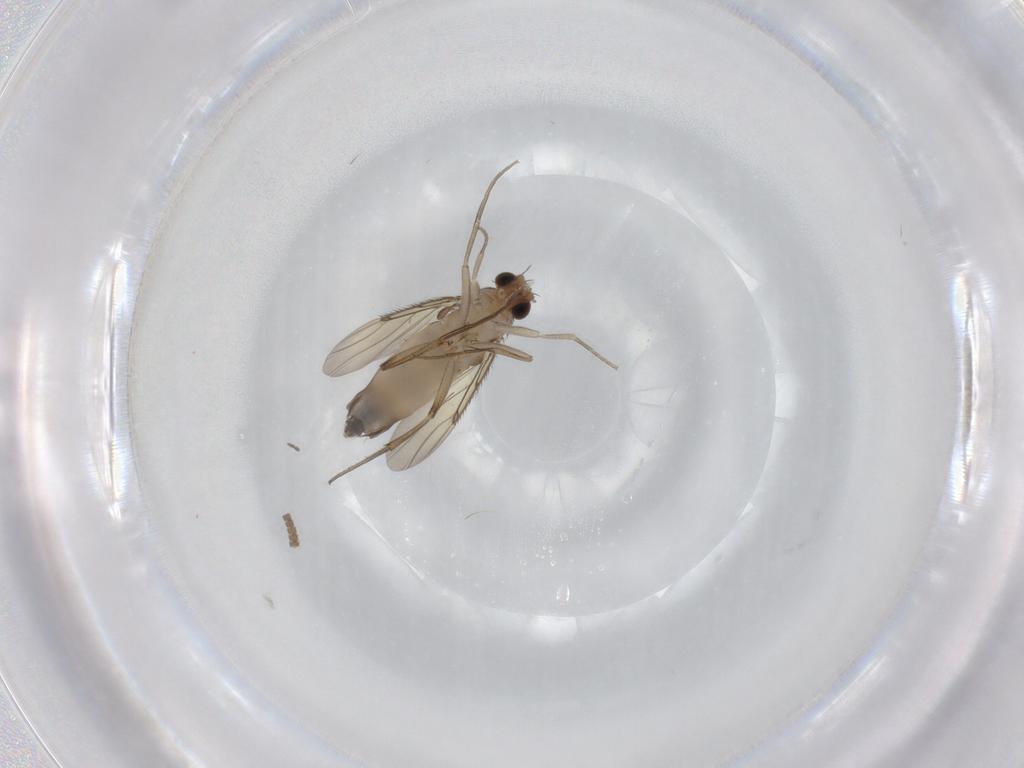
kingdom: Animalia
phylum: Arthropoda
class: Insecta
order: Diptera
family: Phoridae
